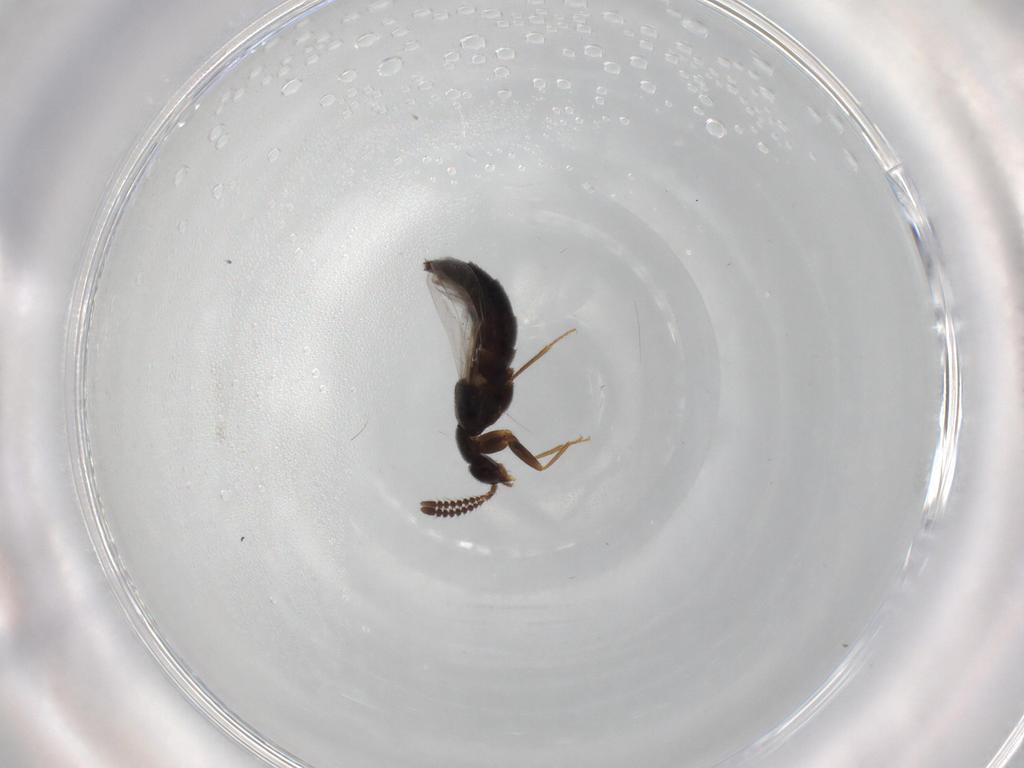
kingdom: Animalia
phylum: Arthropoda
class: Insecta
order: Coleoptera
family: Staphylinidae
